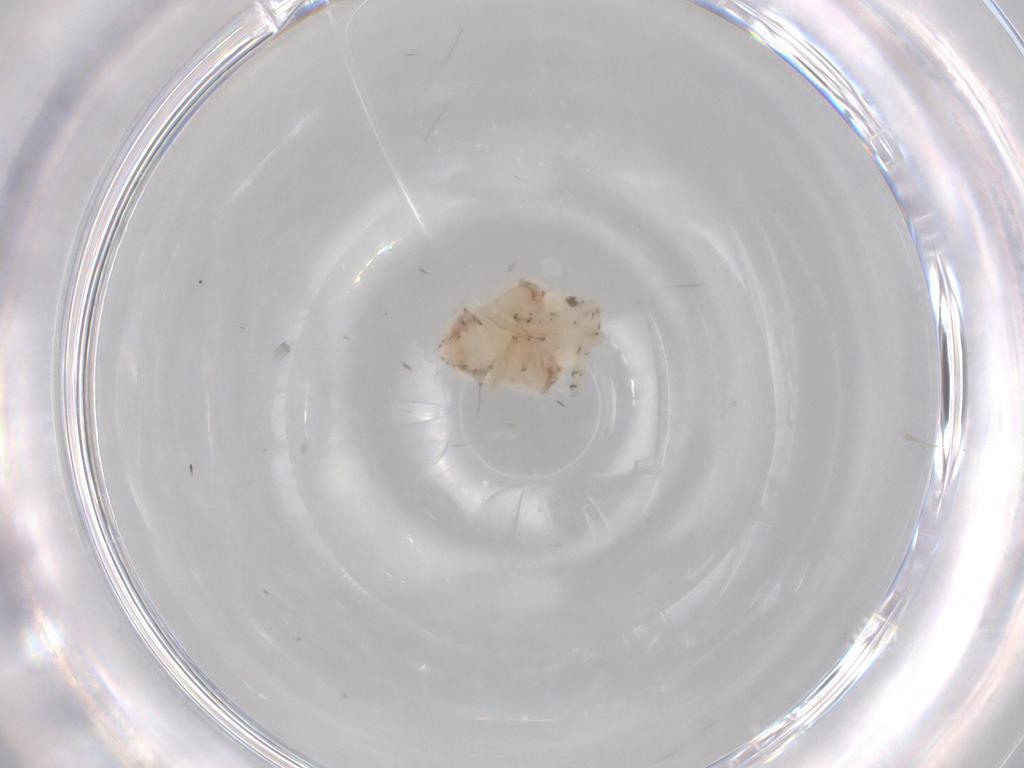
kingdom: Animalia
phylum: Arthropoda
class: Insecta
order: Hemiptera
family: Nogodinidae
